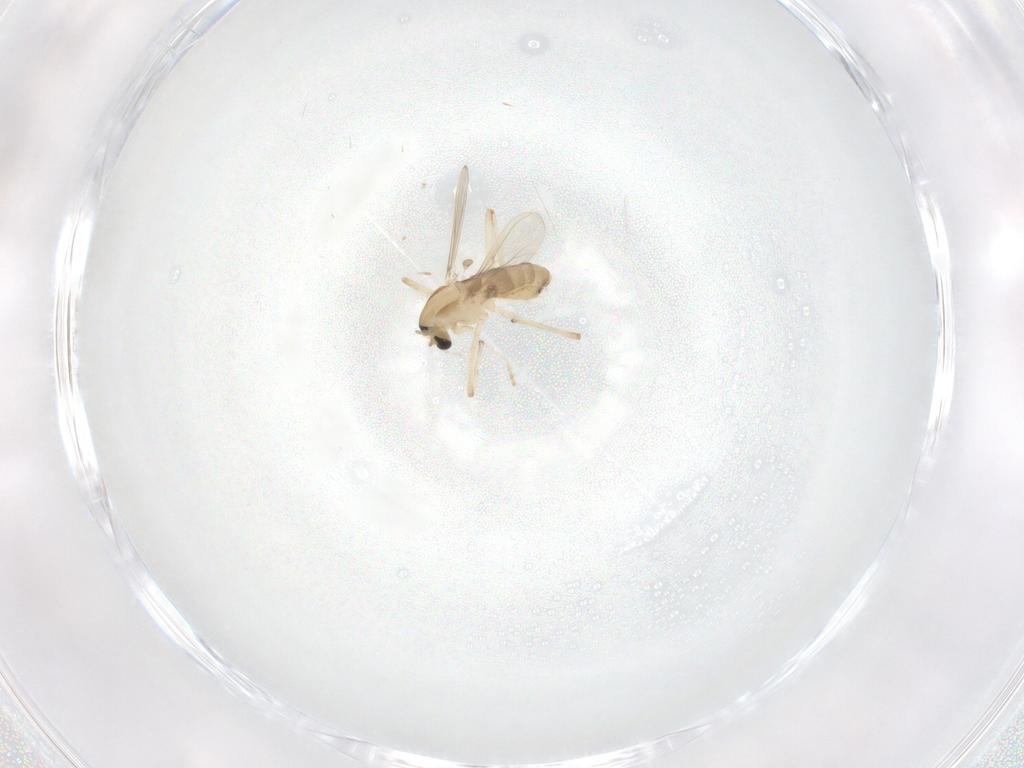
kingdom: Animalia
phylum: Arthropoda
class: Insecta
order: Diptera
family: Chironomidae
